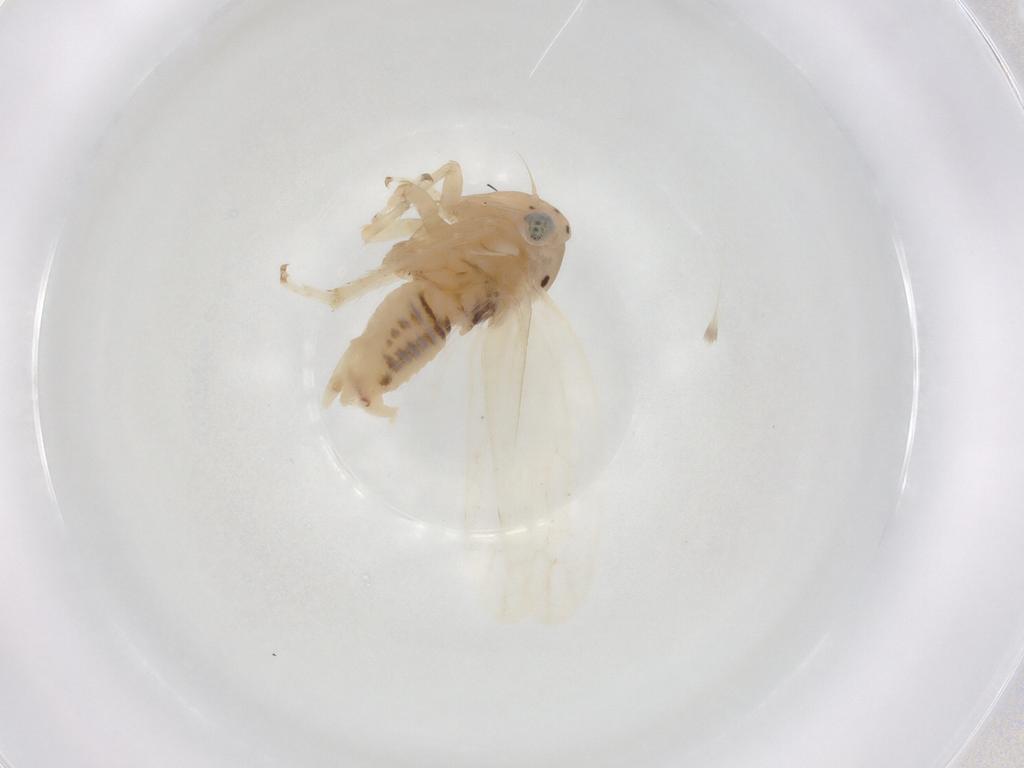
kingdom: Animalia
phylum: Arthropoda
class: Insecta
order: Hemiptera
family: Cicadellidae
